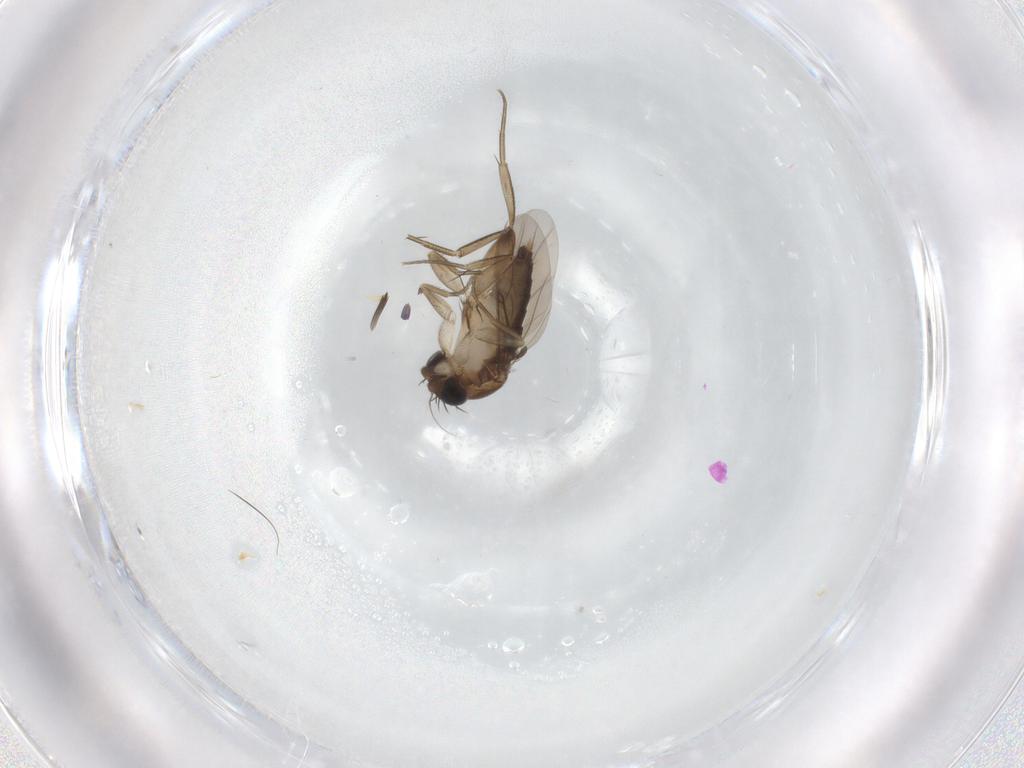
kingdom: Animalia
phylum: Arthropoda
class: Insecta
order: Diptera
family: Phoridae
